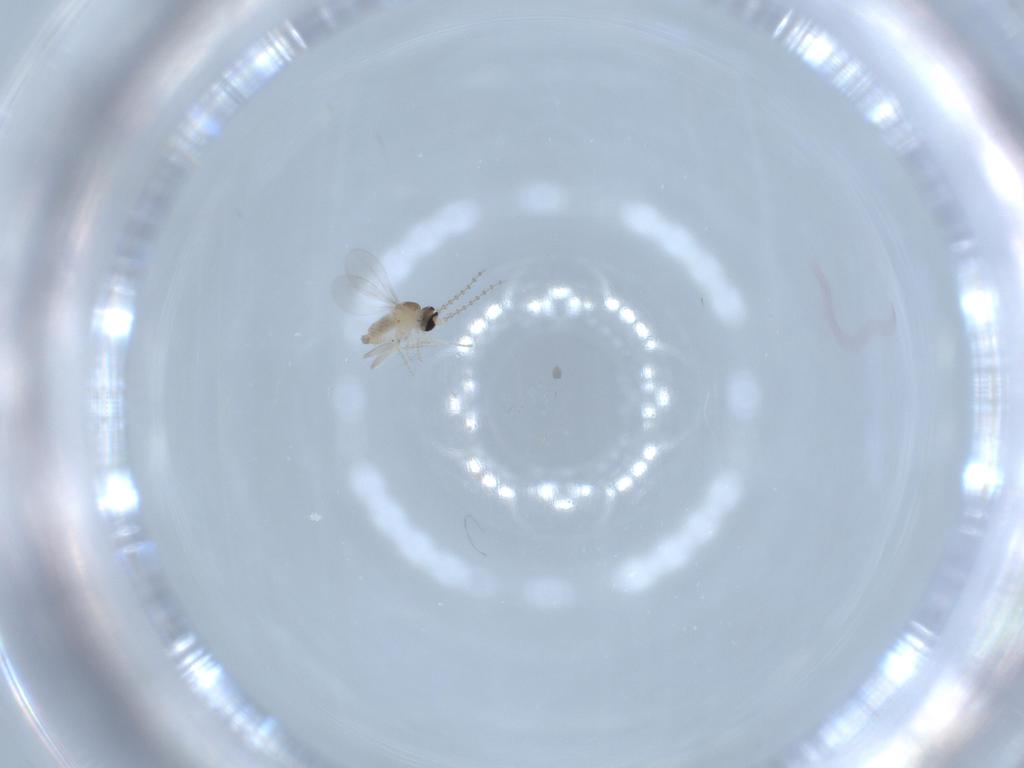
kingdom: Animalia
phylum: Arthropoda
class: Insecta
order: Diptera
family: Cecidomyiidae
